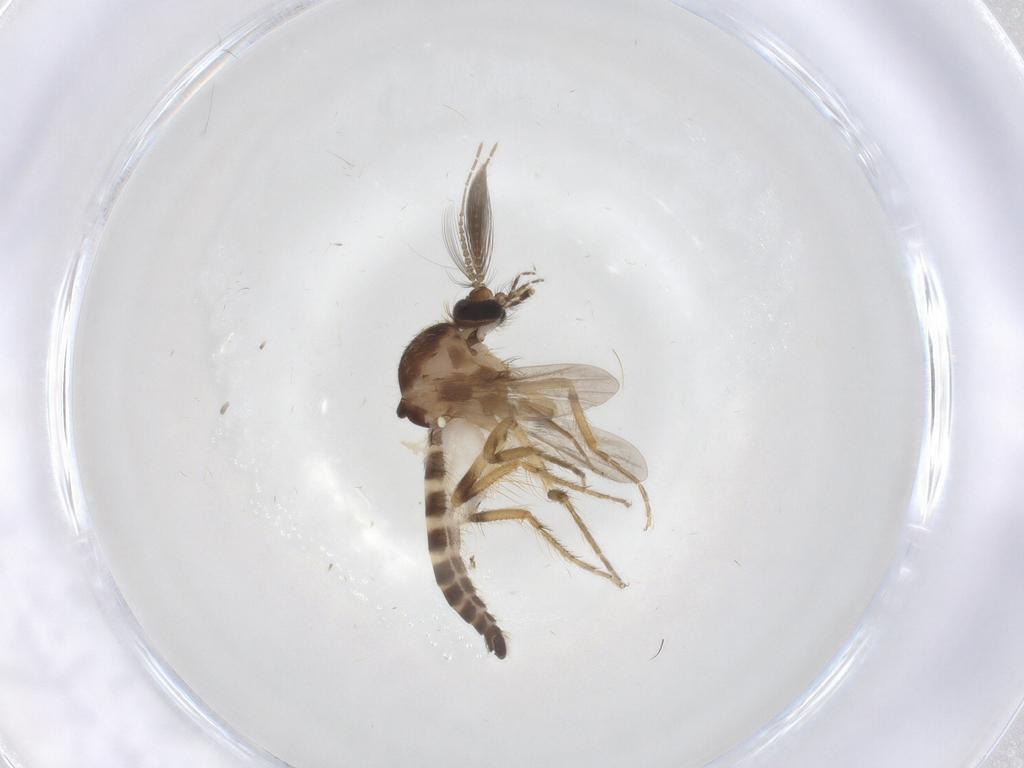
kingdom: Animalia
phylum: Arthropoda
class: Insecta
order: Diptera
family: Ceratopogonidae
